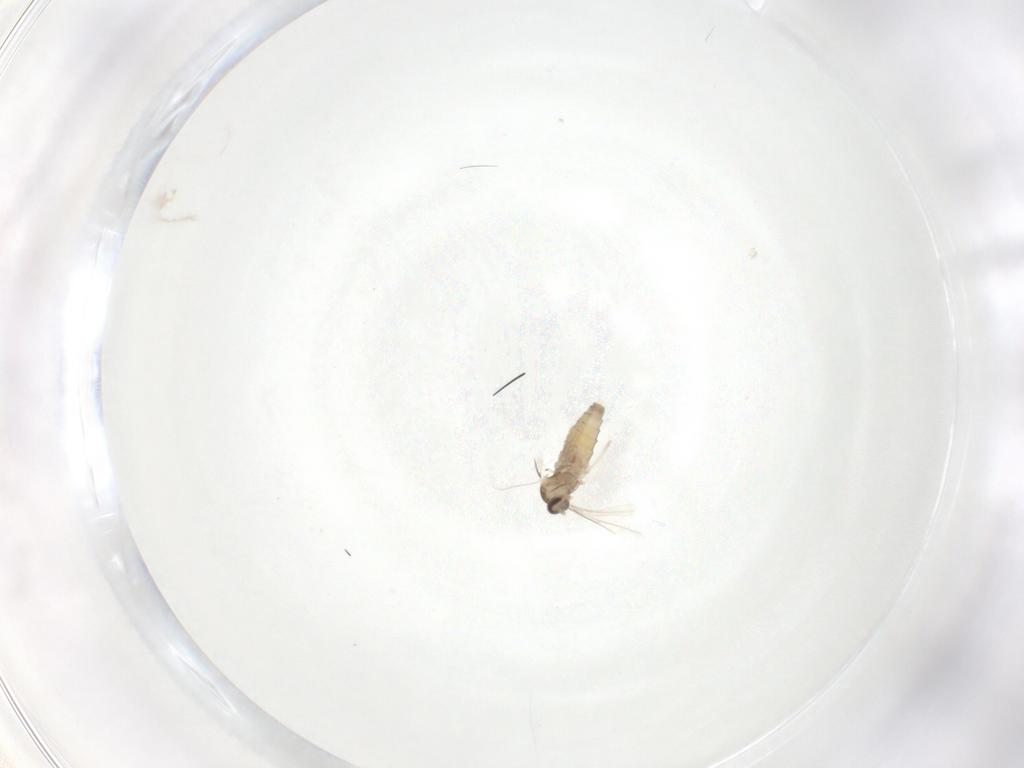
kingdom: Animalia
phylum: Arthropoda
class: Insecta
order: Diptera
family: Cecidomyiidae
